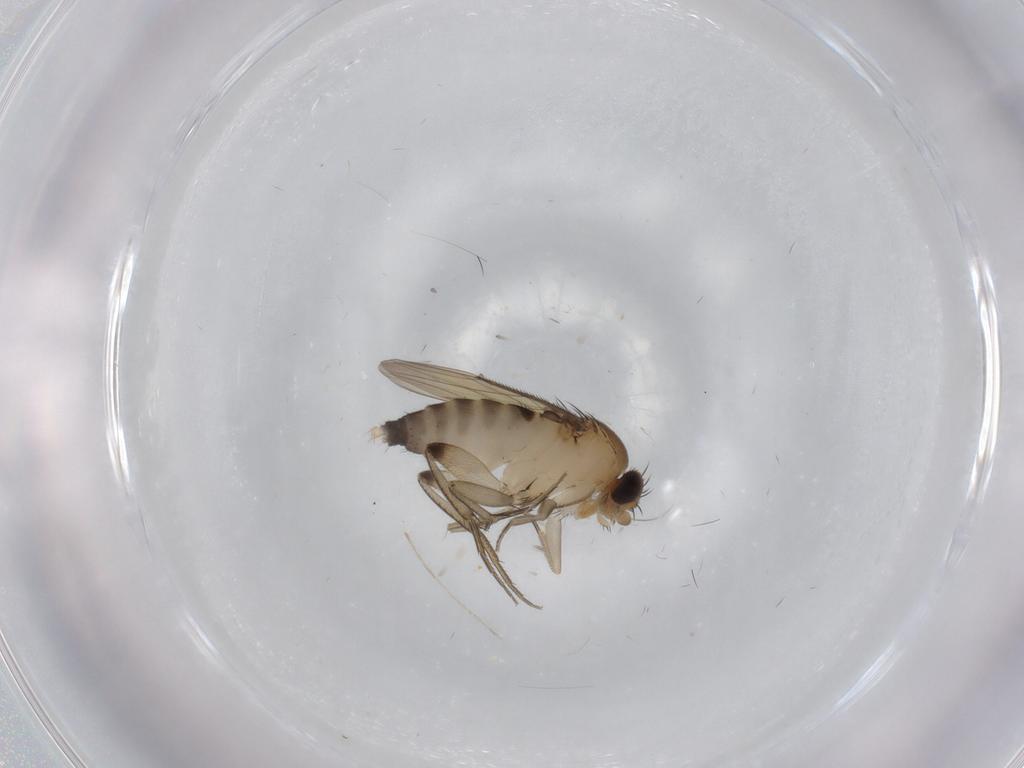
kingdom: Animalia
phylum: Arthropoda
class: Insecta
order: Diptera
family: Phoridae
